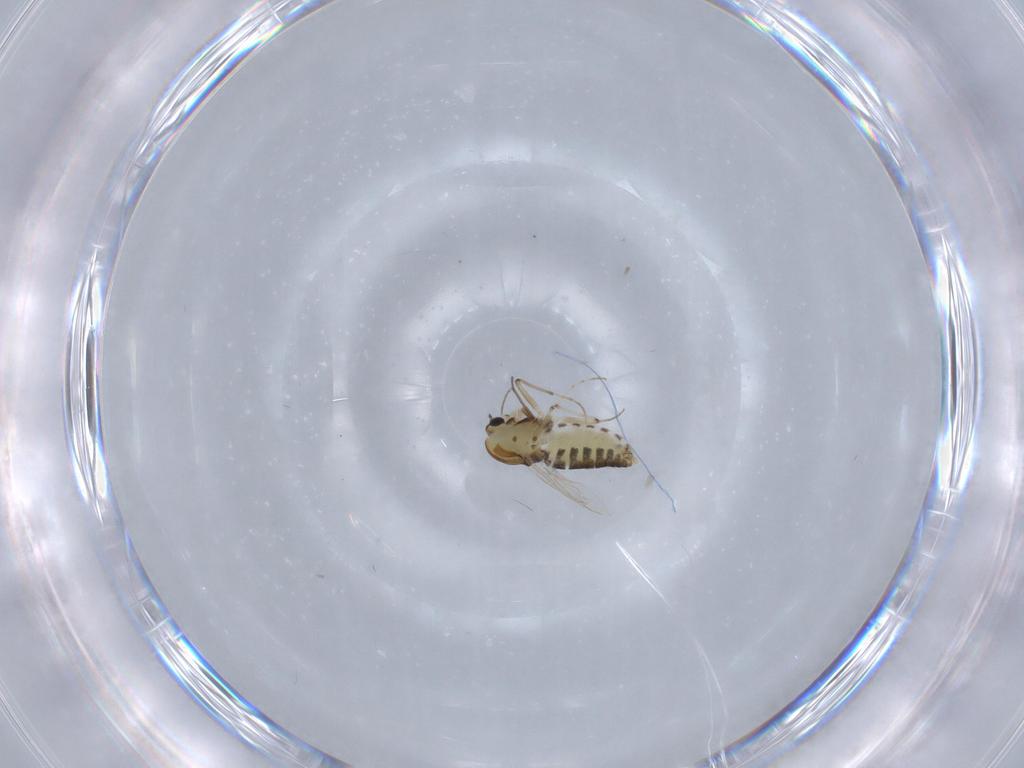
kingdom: Animalia
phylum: Arthropoda
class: Insecta
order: Diptera
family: Chironomidae
